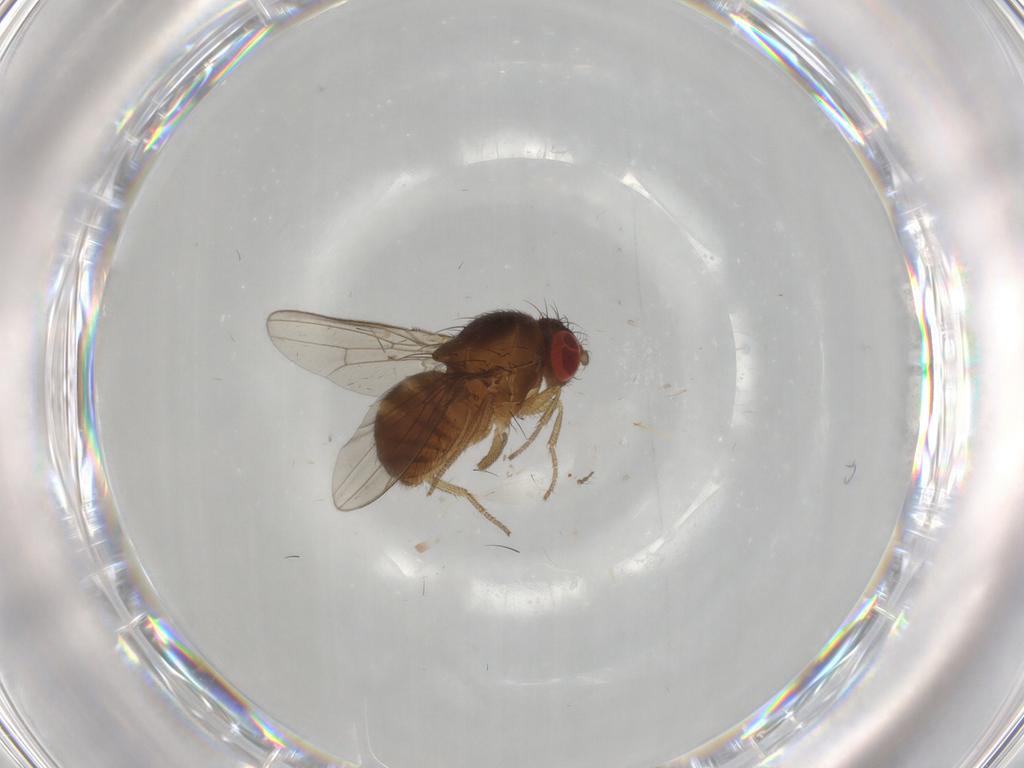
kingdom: Animalia
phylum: Arthropoda
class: Insecta
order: Diptera
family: Drosophilidae
